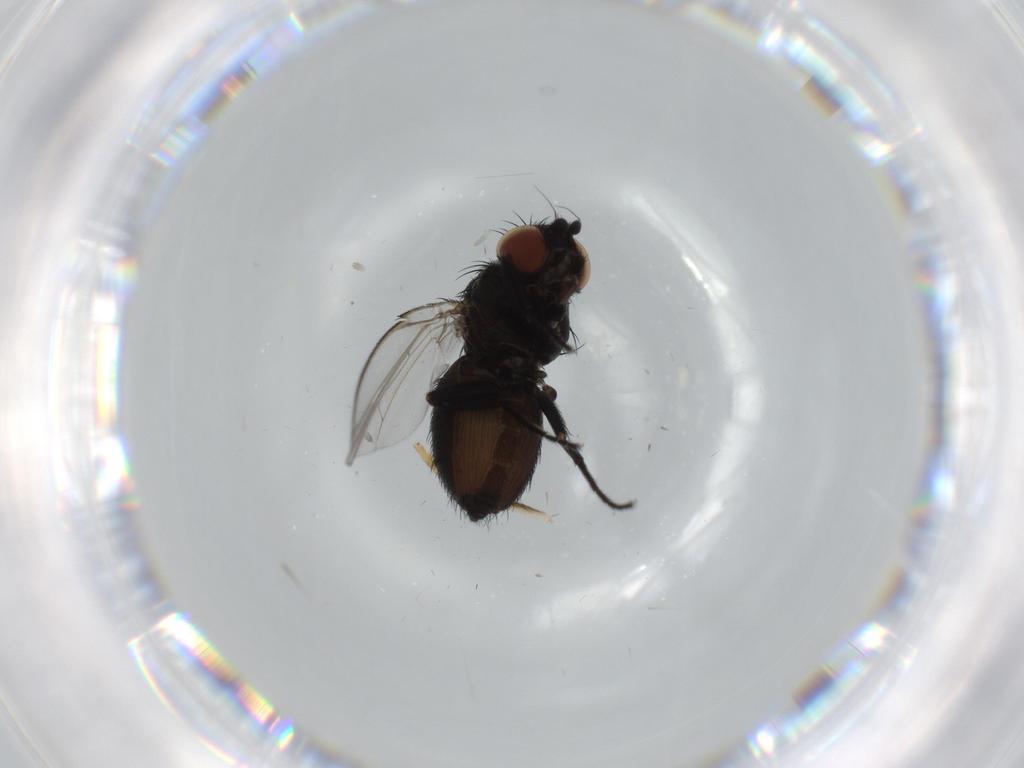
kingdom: Animalia
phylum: Arthropoda
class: Insecta
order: Diptera
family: Milichiidae
